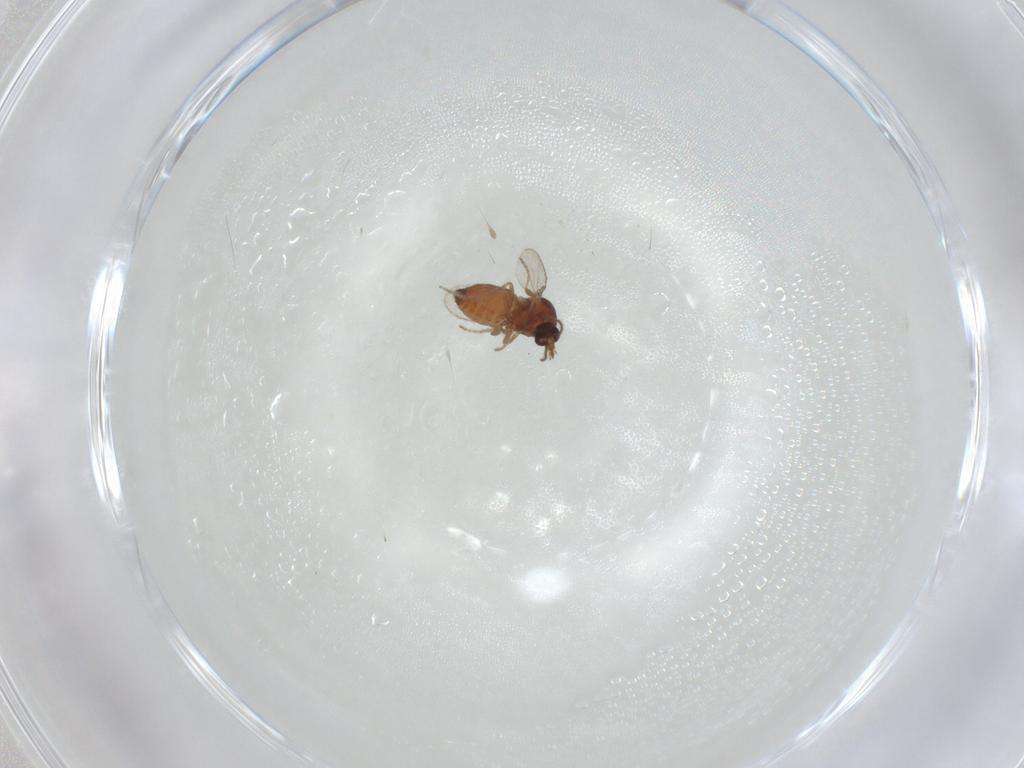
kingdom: Animalia
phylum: Arthropoda
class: Insecta
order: Diptera
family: Ceratopogonidae
